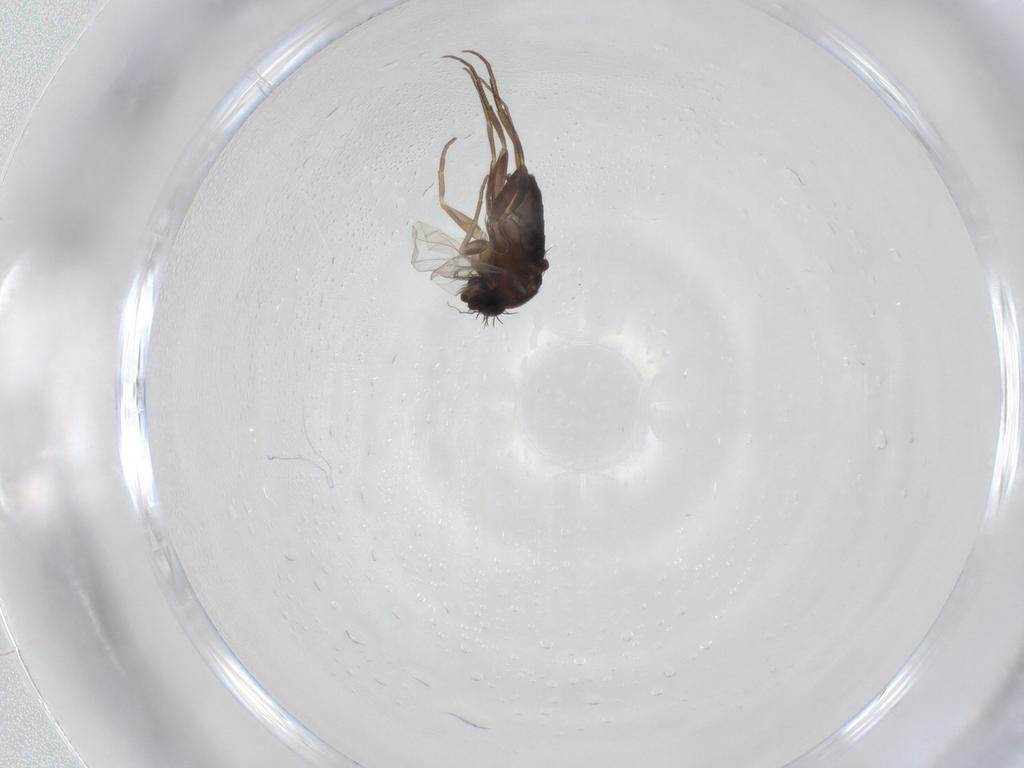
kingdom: Animalia
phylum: Arthropoda
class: Insecta
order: Diptera
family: Phoridae
